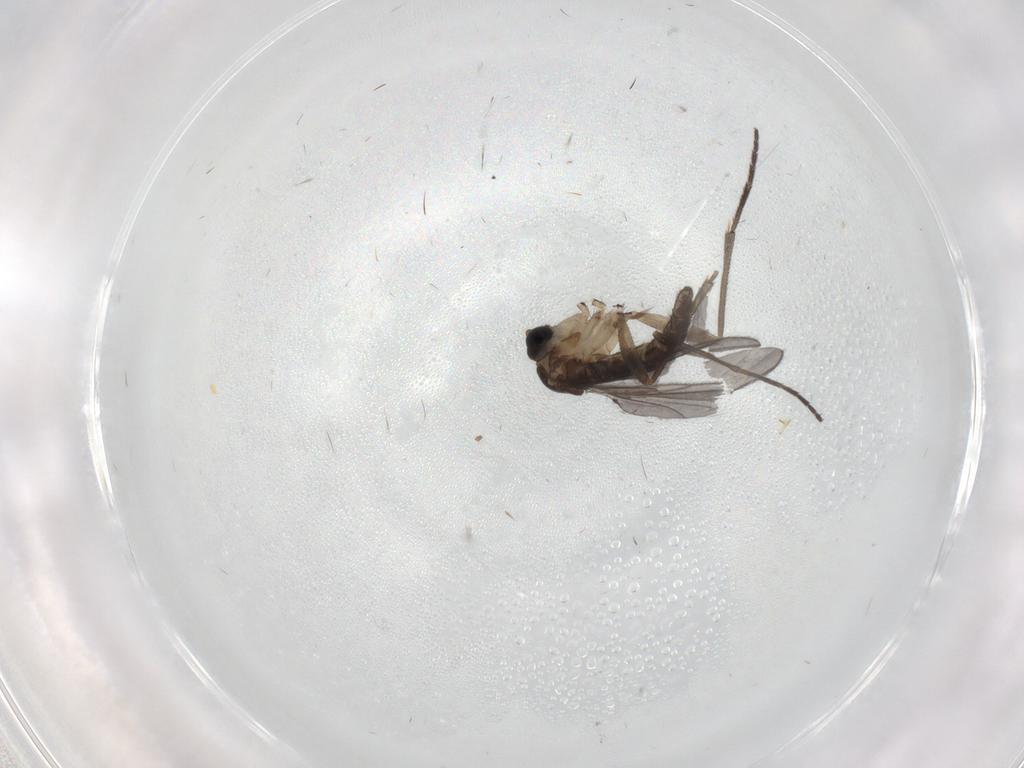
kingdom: Animalia
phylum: Arthropoda
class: Insecta
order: Diptera
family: Sciaridae
